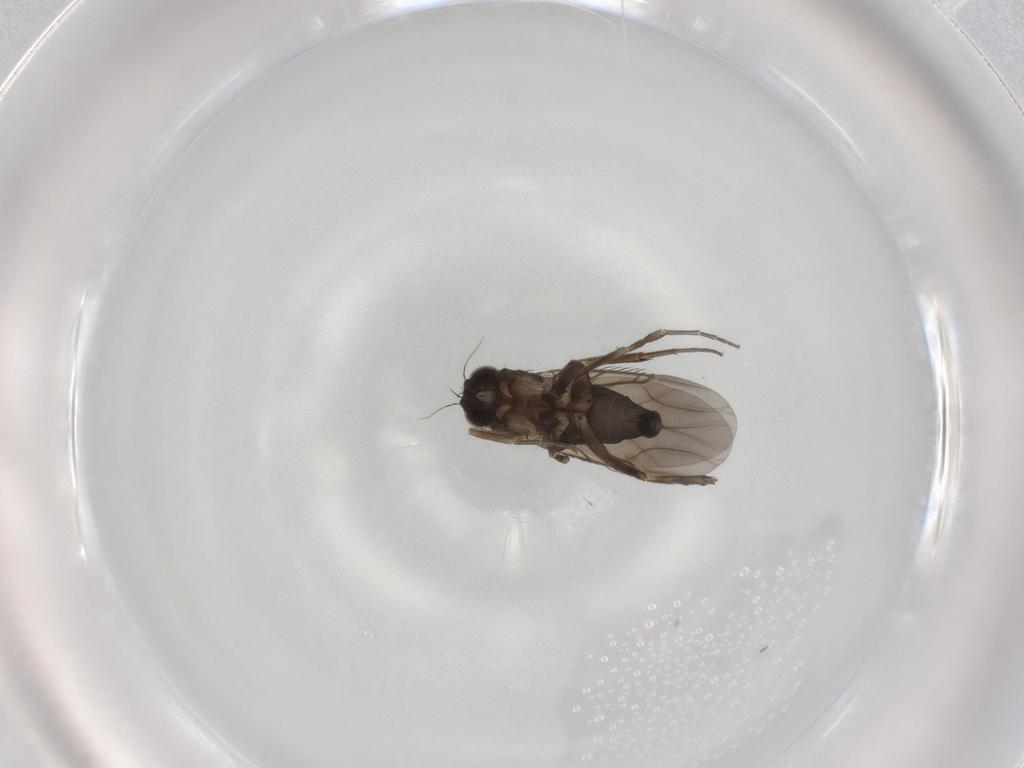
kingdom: Animalia
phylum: Arthropoda
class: Insecta
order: Diptera
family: Phoridae
